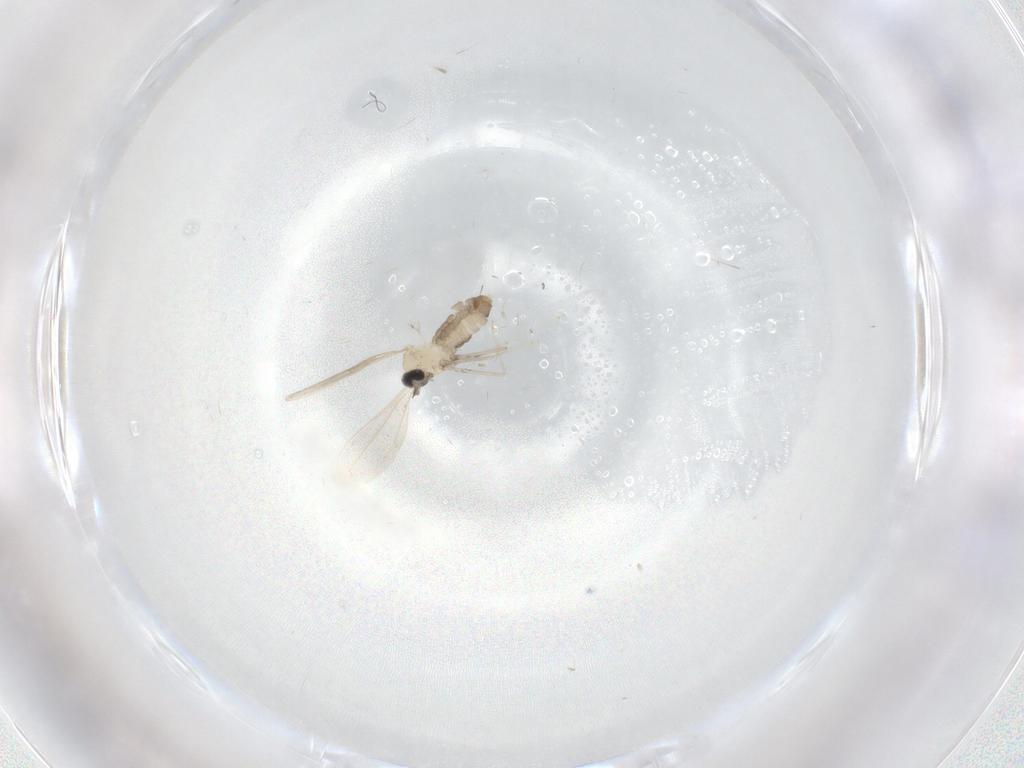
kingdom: Animalia
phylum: Arthropoda
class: Insecta
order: Diptera
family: Cecidomyiidae
